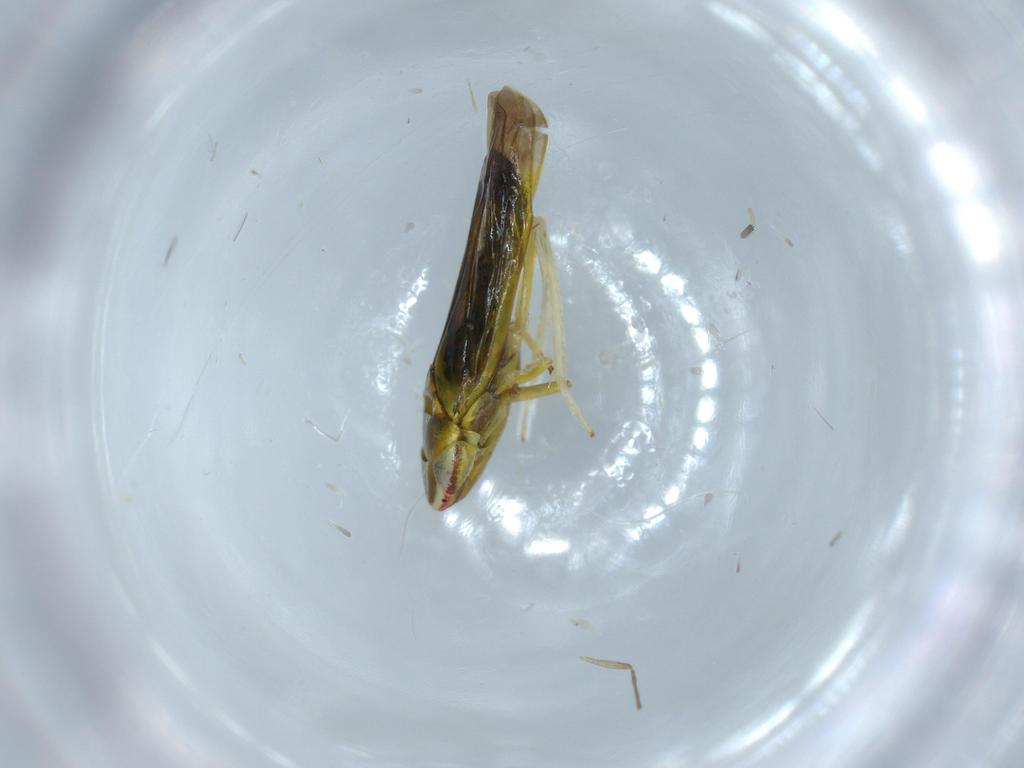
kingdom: Animalia
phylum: Arthropoda
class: Insecta
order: Hemiptera
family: Cicadellidae
